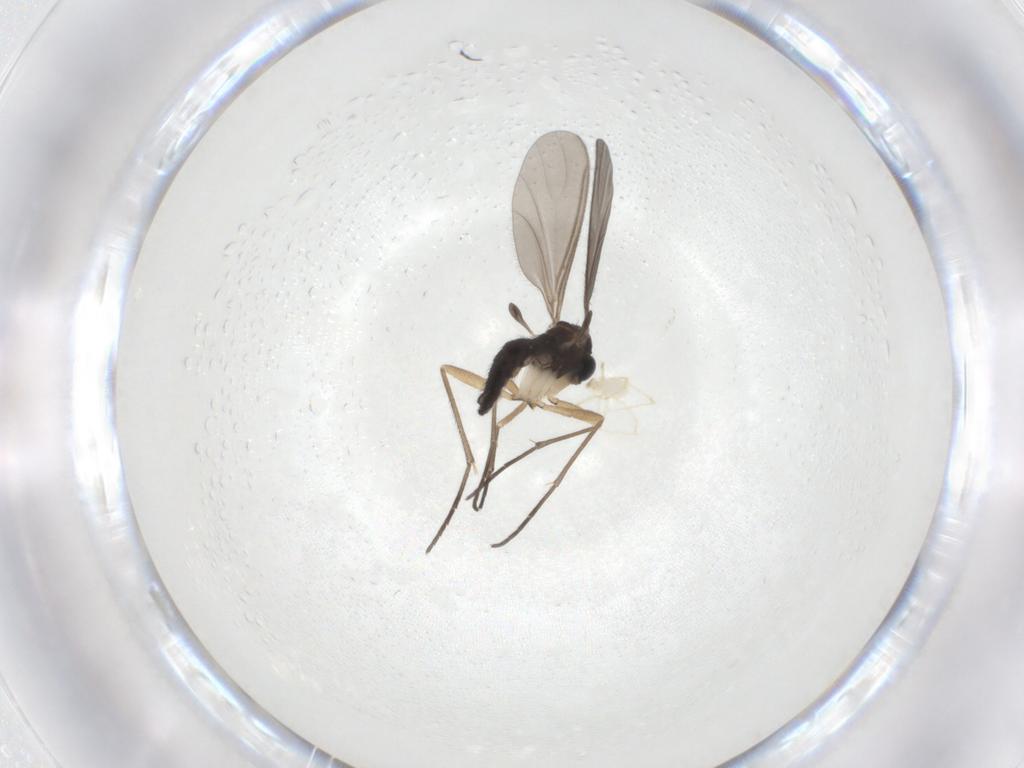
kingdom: Animalia
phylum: Arthropoda
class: Insecta
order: Diptera
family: Sciaridae
